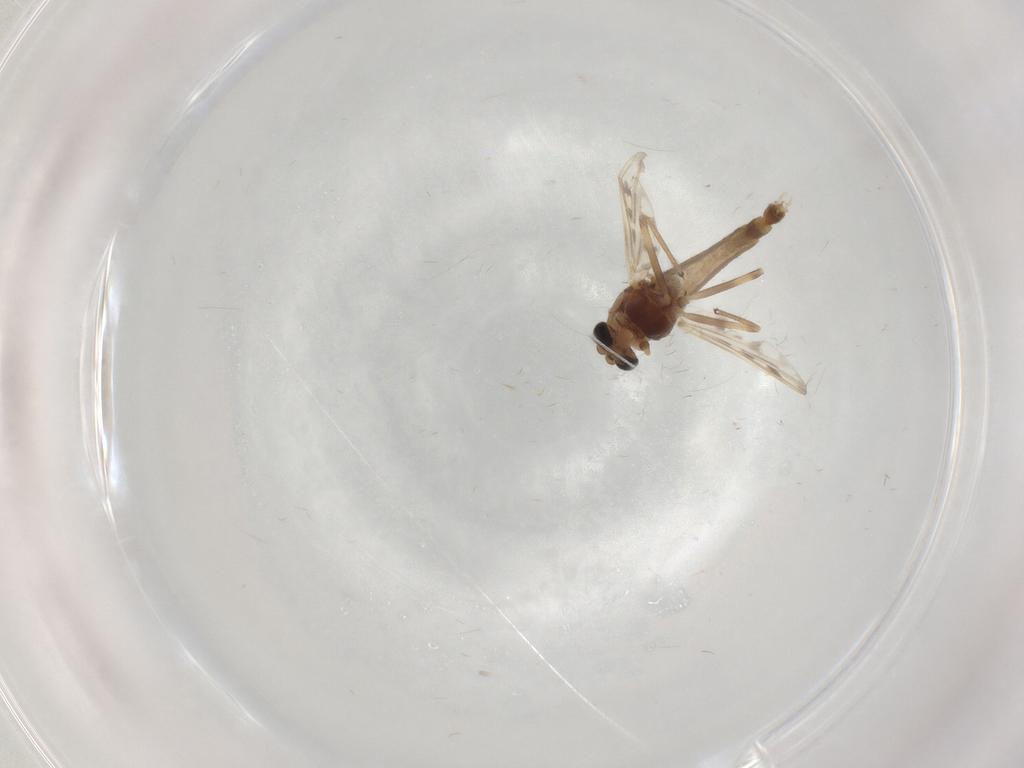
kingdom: Animalia
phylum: Arthropoda
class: Insecta
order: Diptera
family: Chironomidae
